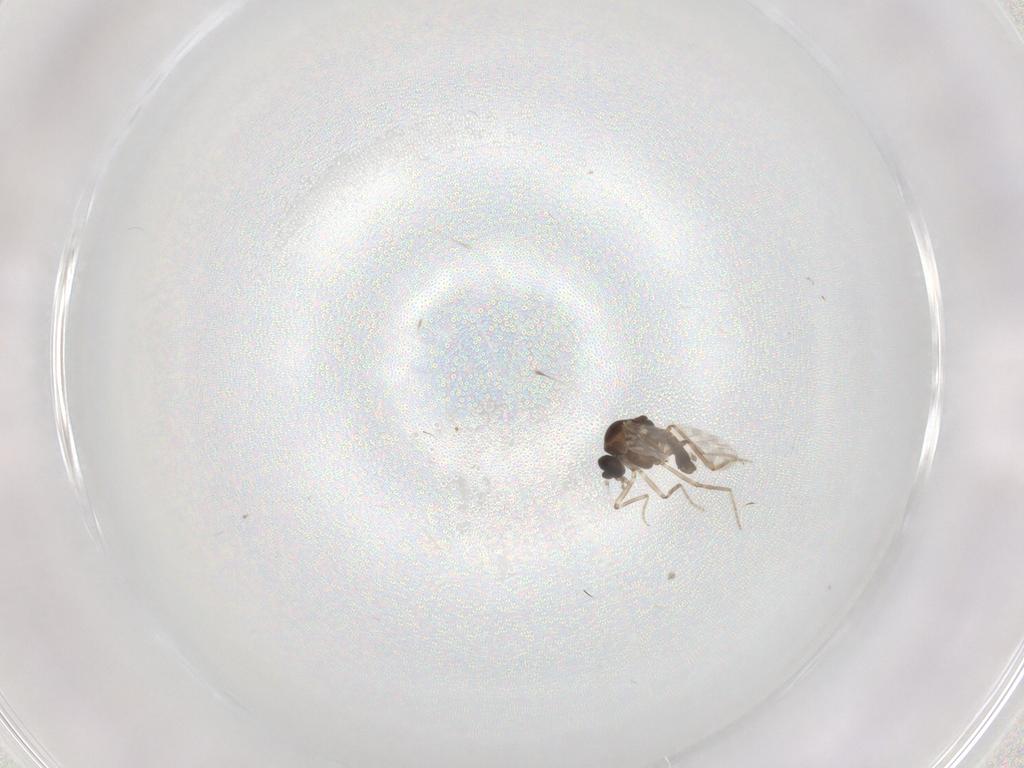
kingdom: Animalia
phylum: Arthropoda
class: Insecta
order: Diptera
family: Ceratopogonidae
